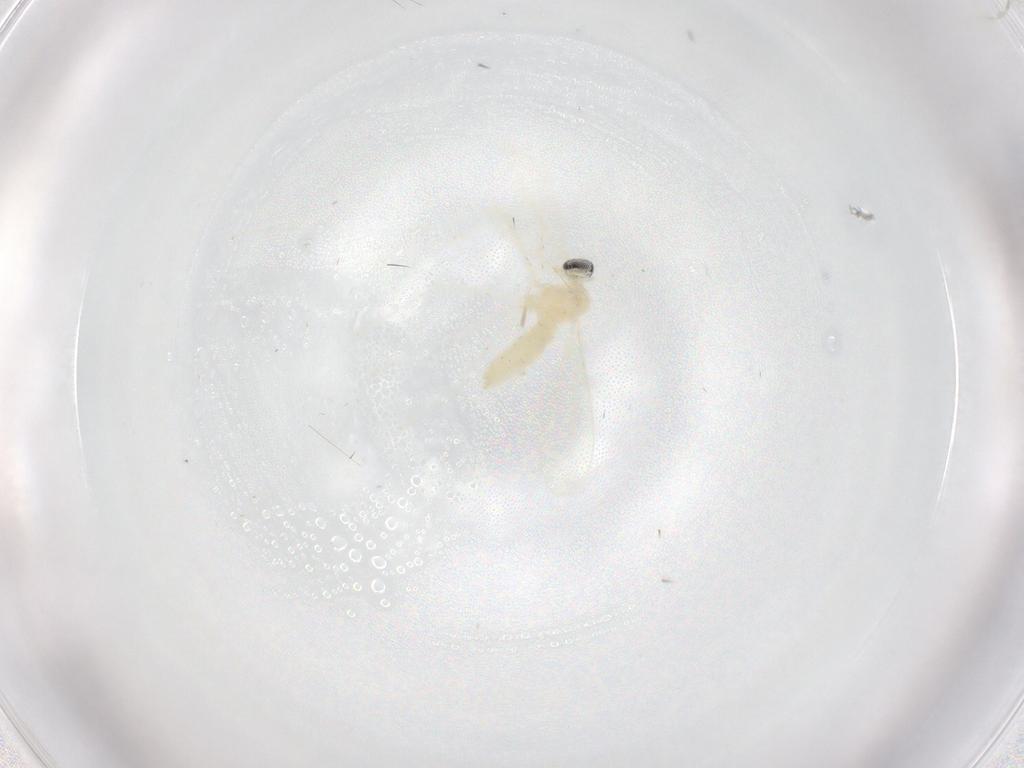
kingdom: Animalia
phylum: Arthropoda
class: Insecta
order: Diptera
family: Cecidomyiidae
